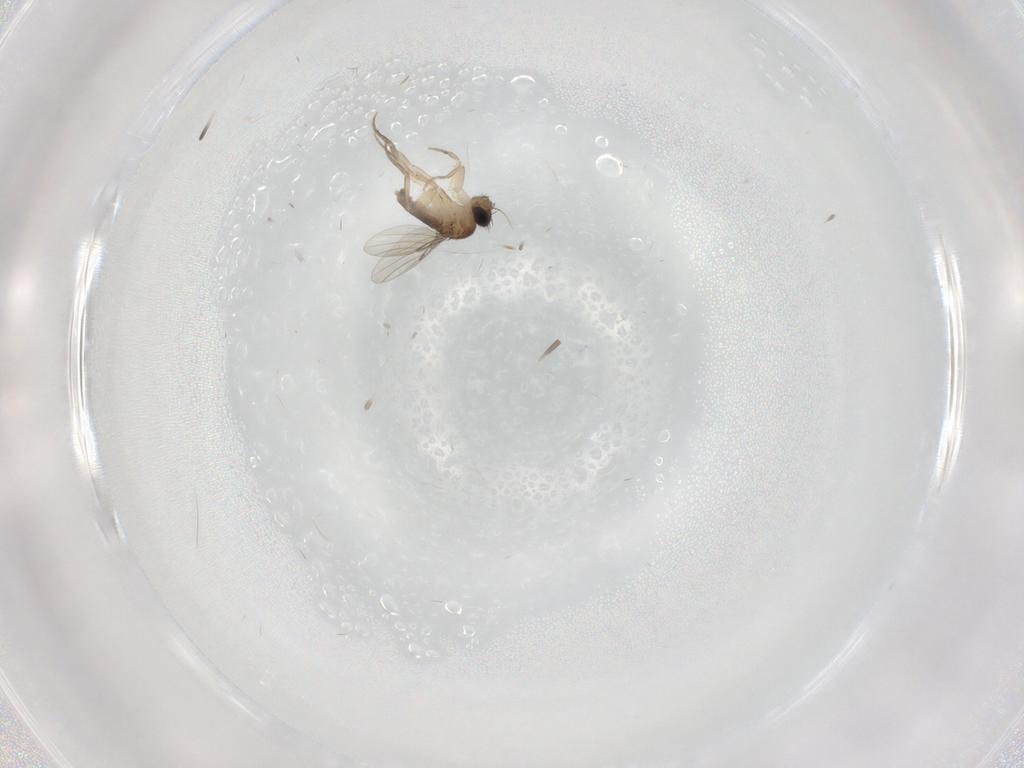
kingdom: Animalia
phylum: Arthropoda
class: Insecta
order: Diptera
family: Phoridae
